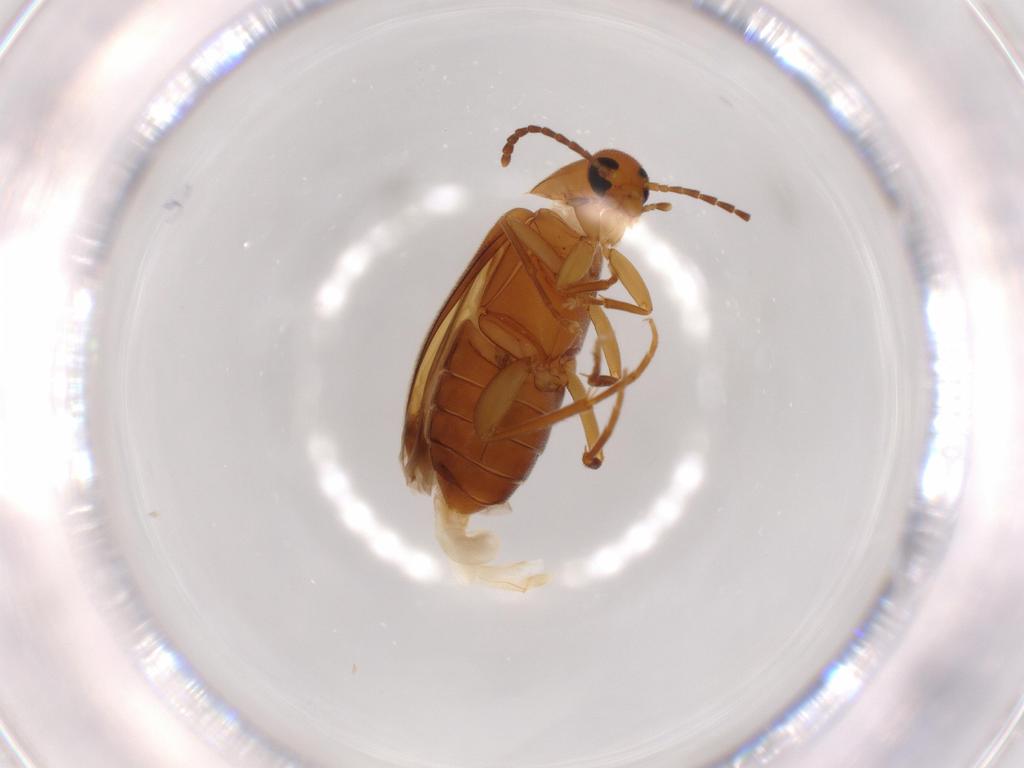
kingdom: Animalia
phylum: Arthropoda
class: Insecta
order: Coleoptera
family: Scraptiidae
